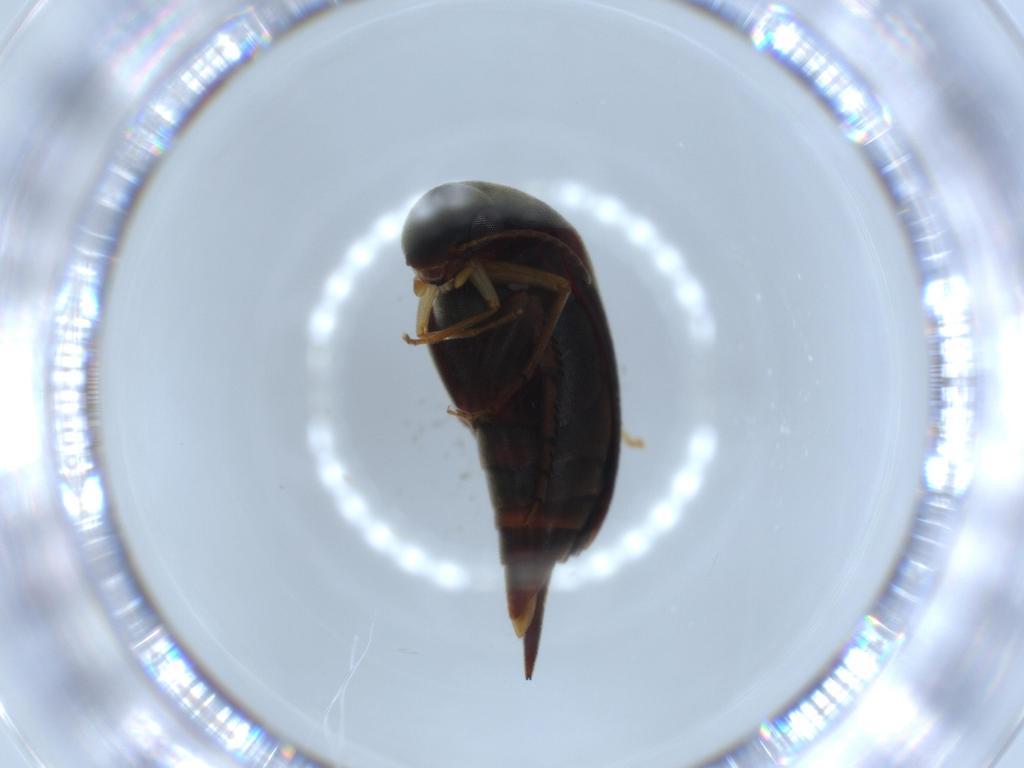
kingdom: Animalia
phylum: Arthropoda
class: Insecta
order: Coleoptera
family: Mordellidae
